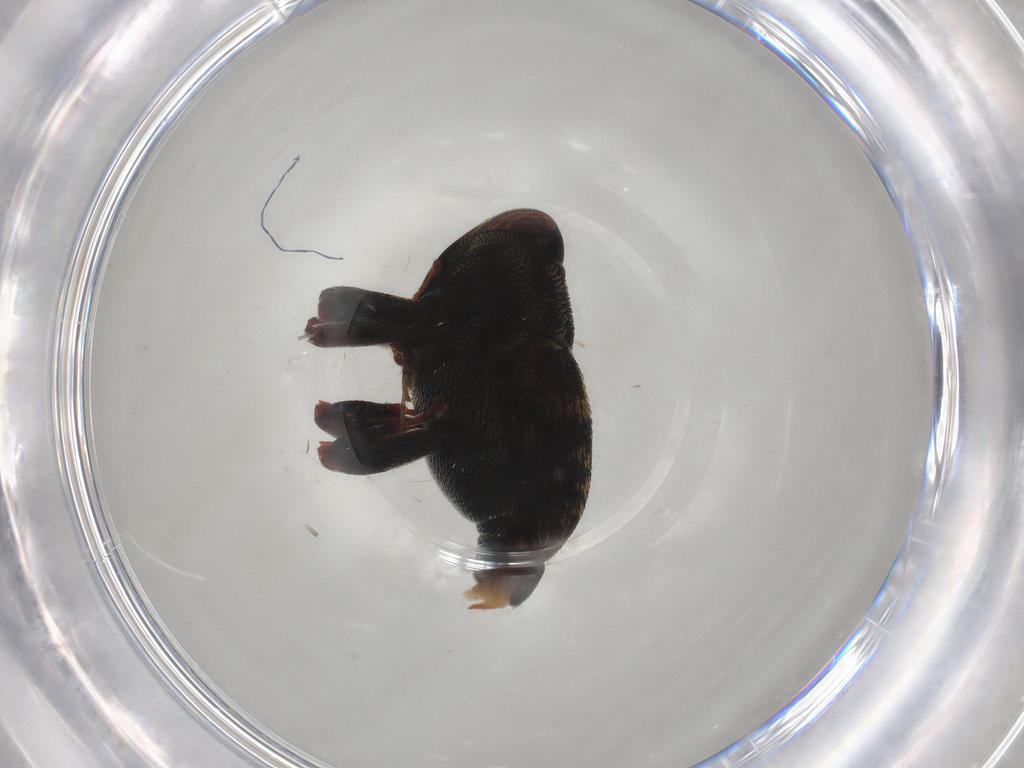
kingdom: Animalia
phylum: Arthropoda
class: Insecta
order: Coleoptera
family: Curculionidae
